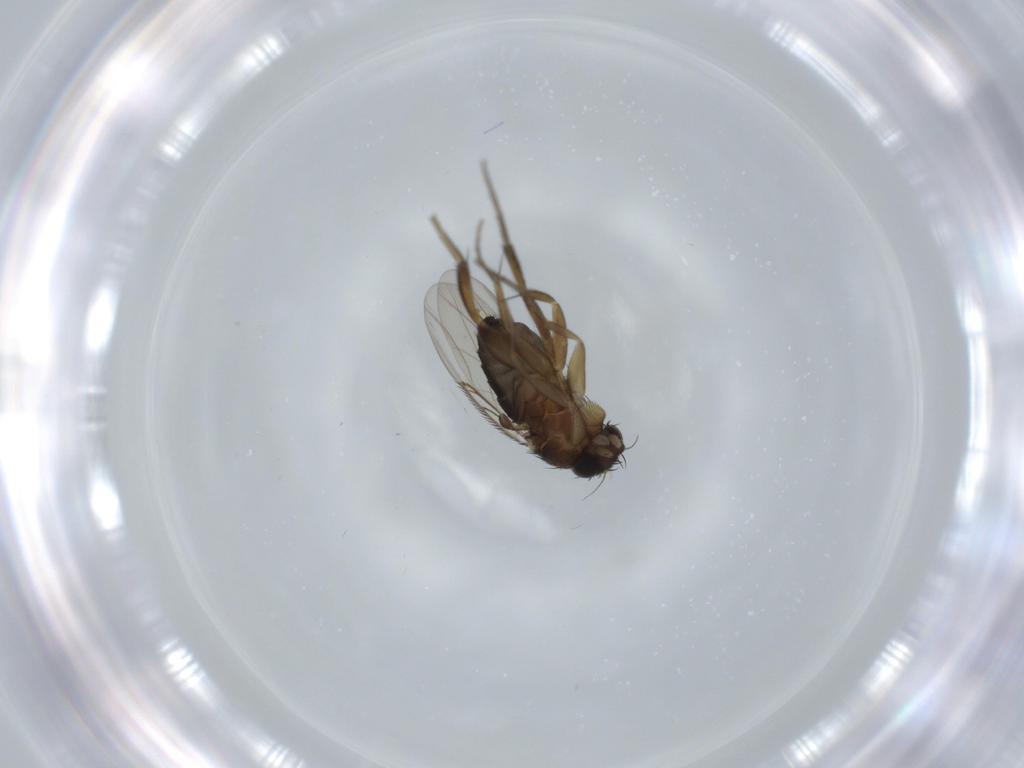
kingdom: Animalia
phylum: Arthropoda
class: Insecta
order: Diptera
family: Phoridae
